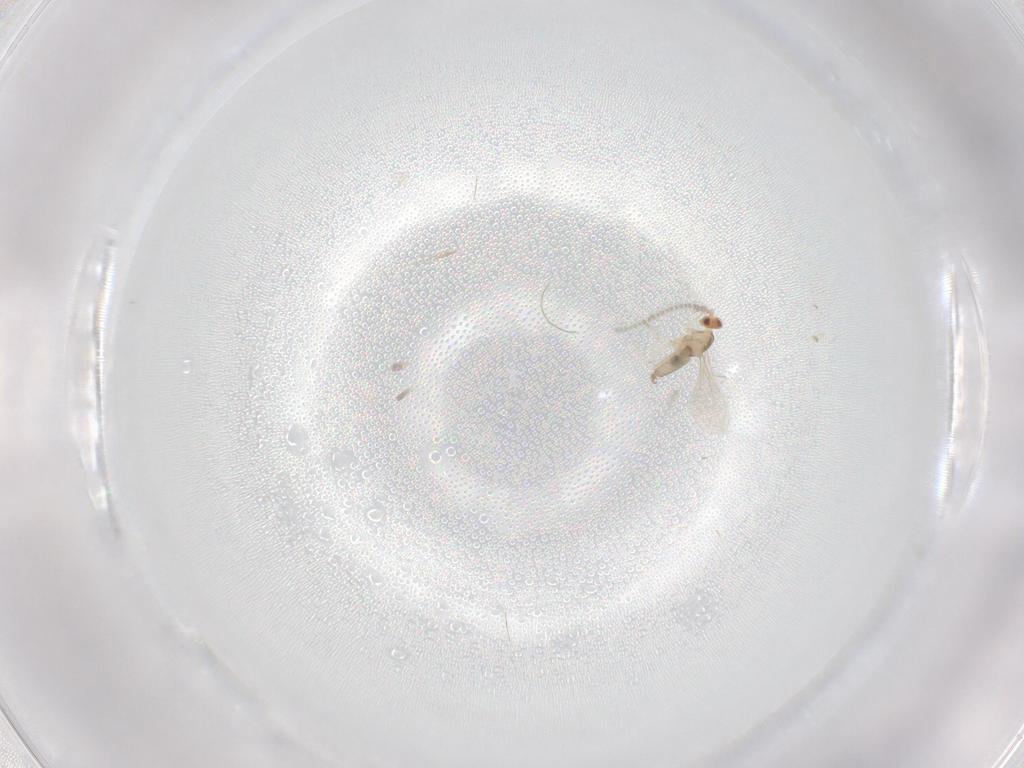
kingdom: Animalia
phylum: Arthropoda
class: Insecta
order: Diptera
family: Cecidomyiidae
